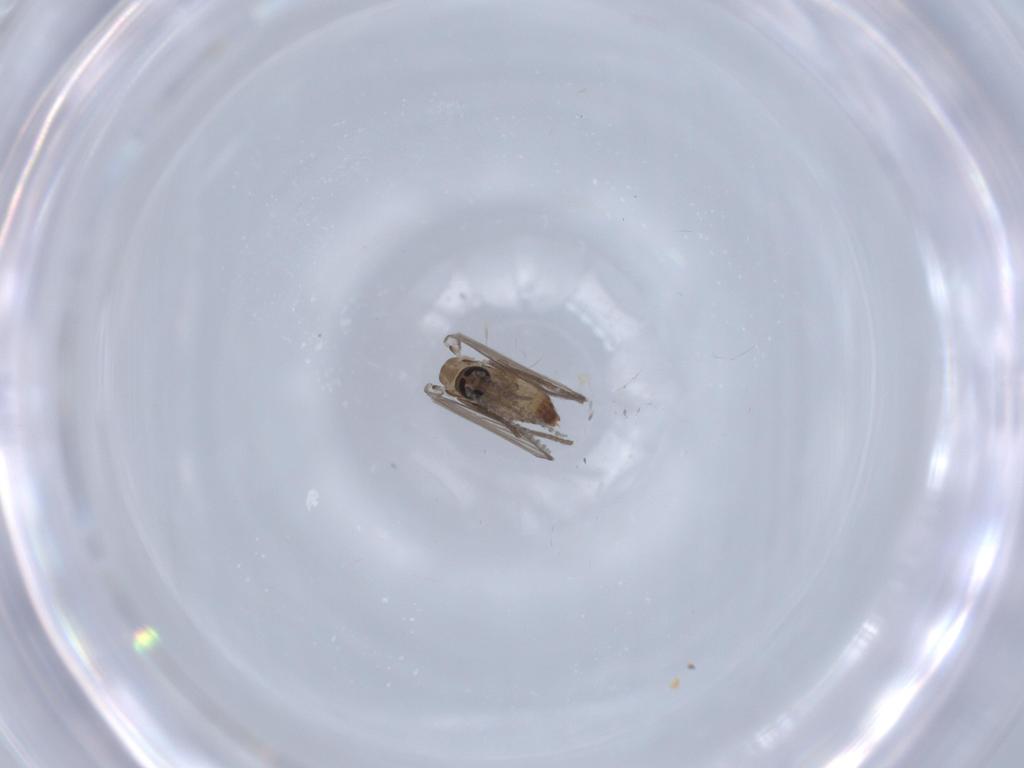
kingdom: Animalia
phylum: Arthropoda
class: Insecta
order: Diptera
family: Psychodidae
